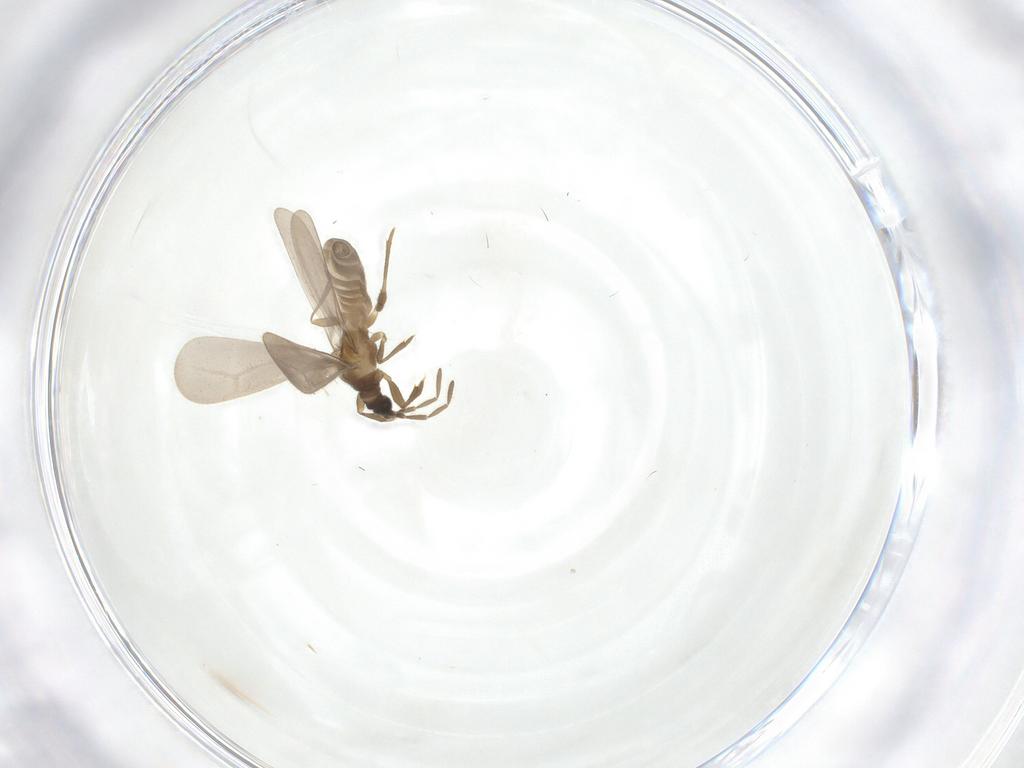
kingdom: Animalia
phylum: Arthropoda
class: Insecta
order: Hemiptera
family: Enicocephalidae
